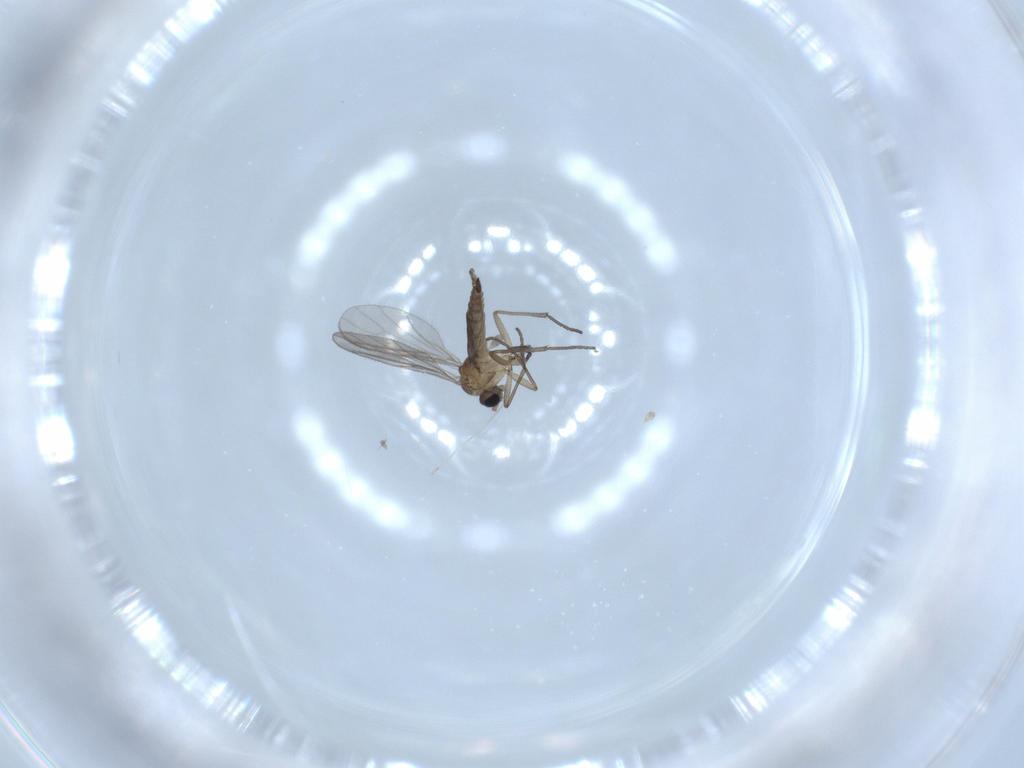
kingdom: Animalia
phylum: Arthropoda
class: Insecta
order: Diptera
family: Sciaridae
